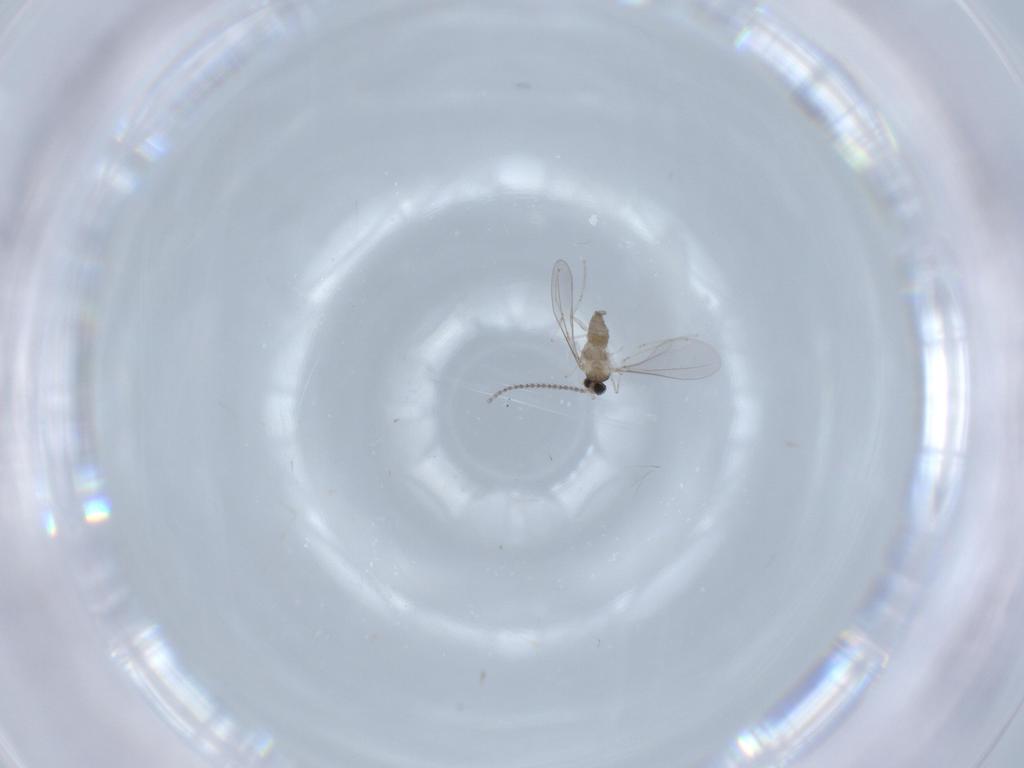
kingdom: Animalia
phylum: Arthropoda
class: Insecta
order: Diptera
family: Cecidomyiidae
